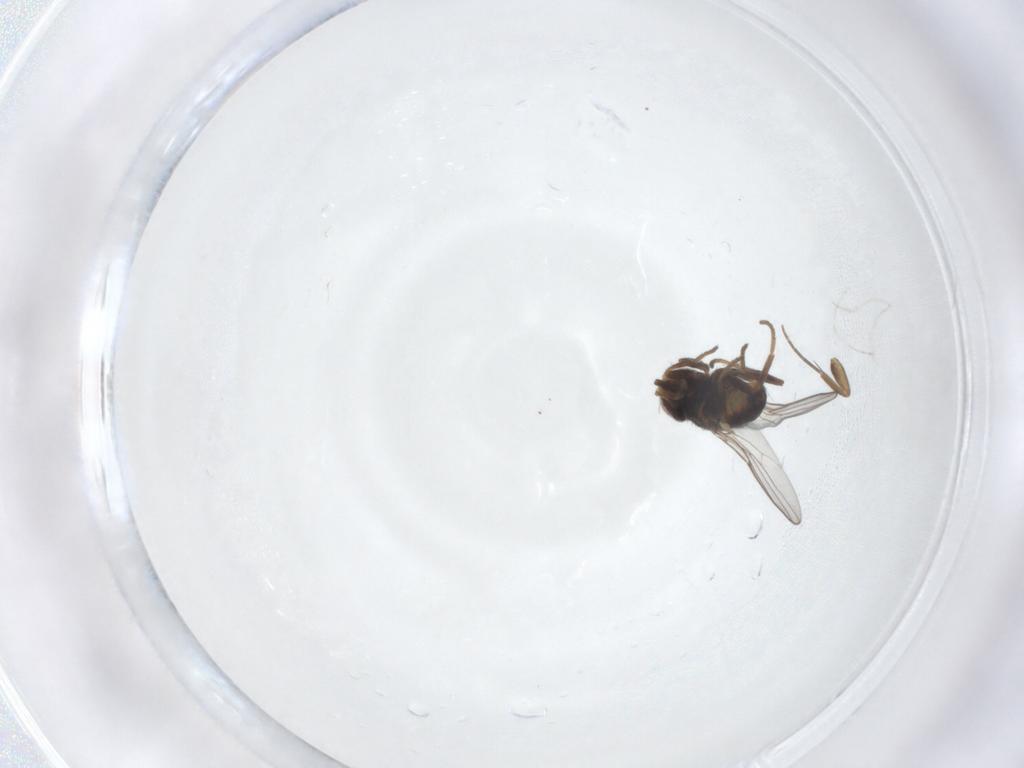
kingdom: Animalia
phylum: Arthropoda
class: Insecta
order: Diptera
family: Chloropidae
